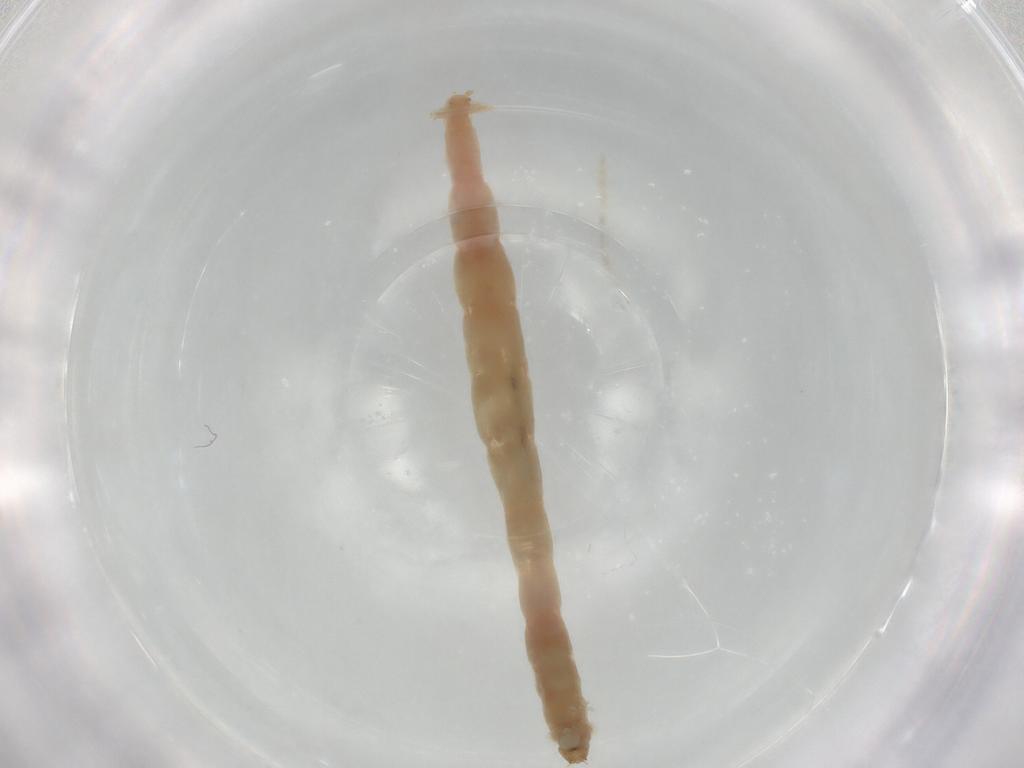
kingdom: Animalia
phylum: Arthropoda
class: Insecta
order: Diptera
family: Chironomidae
